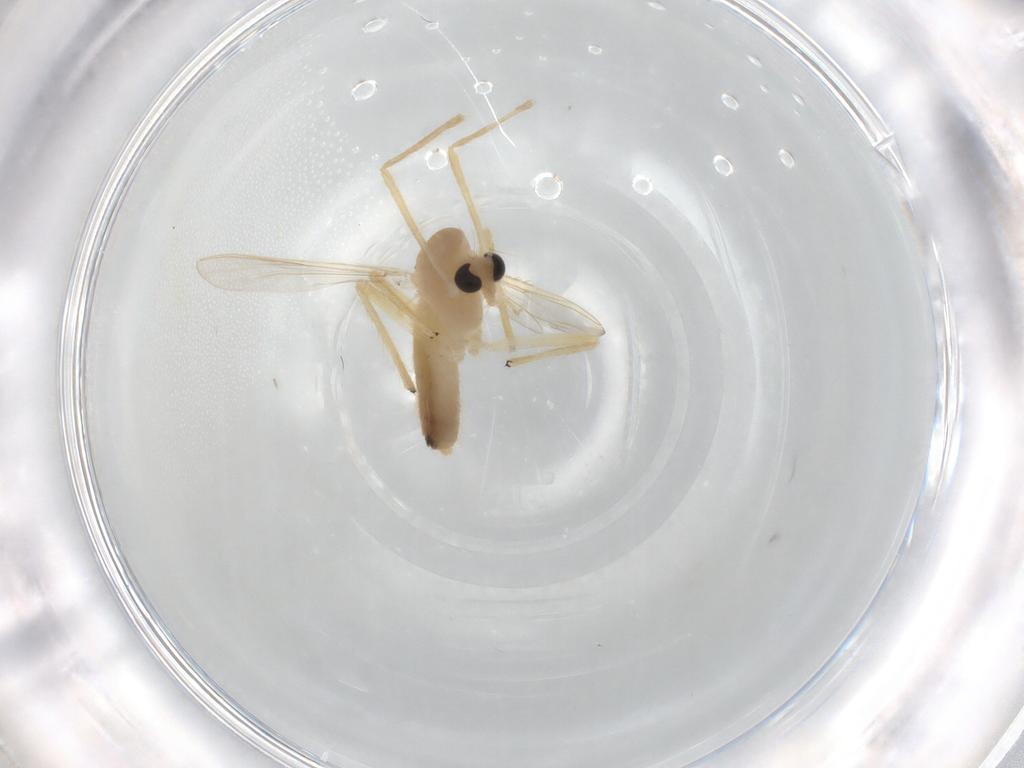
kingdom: Animalia
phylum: Arthropoda
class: Insecta
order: Diptera
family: Chironomidae
